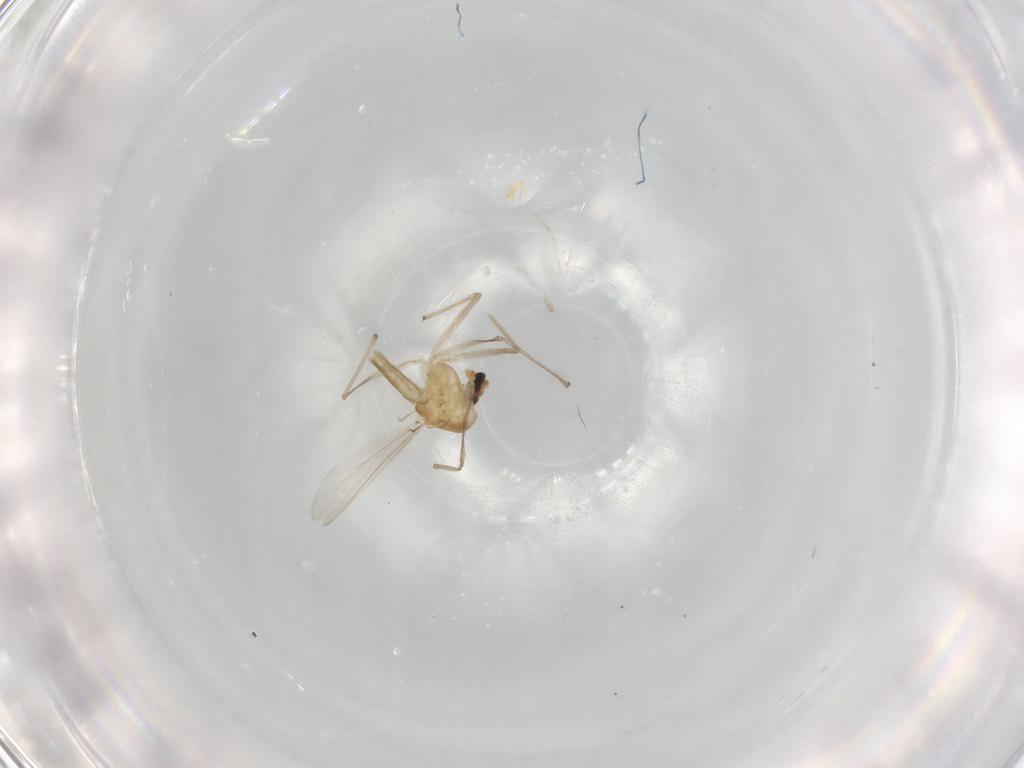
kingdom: Animalia
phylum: Arthropoda
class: Insecta
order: Diptera
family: Chironomidae
